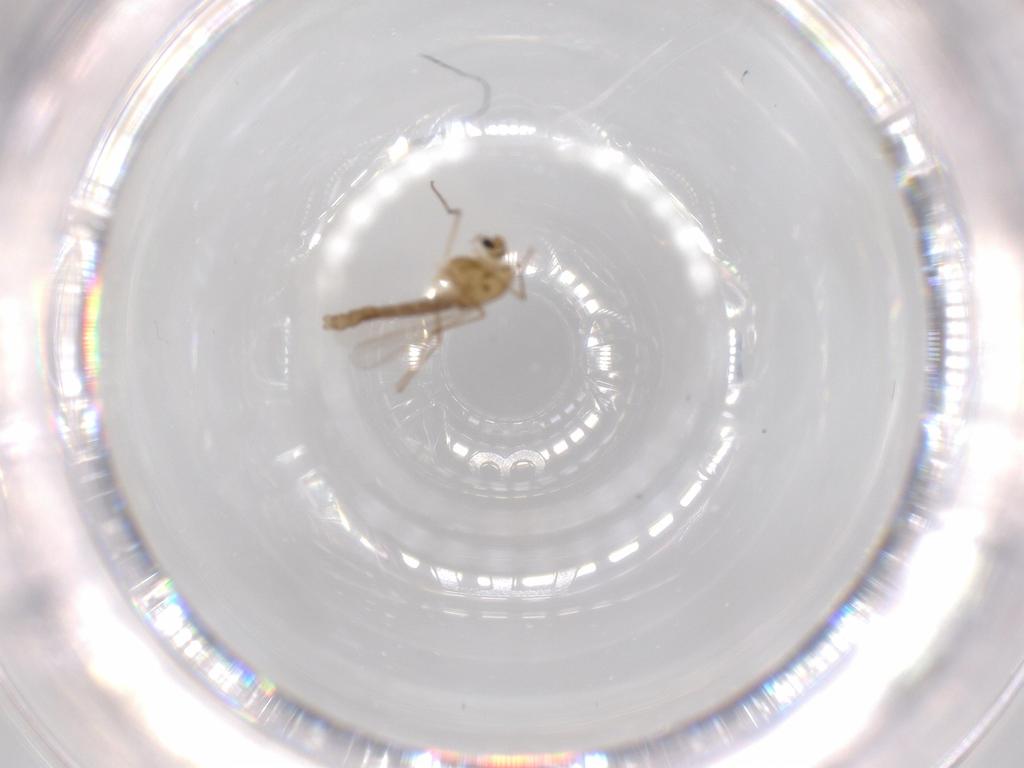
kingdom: Animalia
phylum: Arthropoda
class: Insecta
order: Diptera
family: Chironomidae
